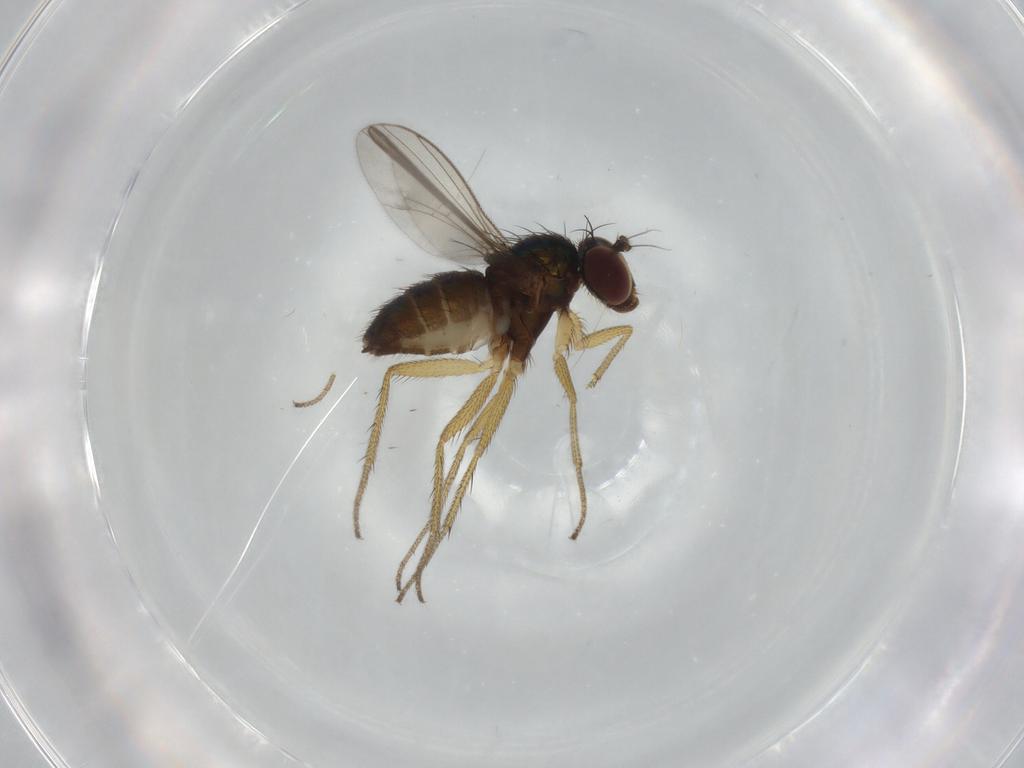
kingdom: Animalia
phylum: Arthropoda
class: Insecta
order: Diptera
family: Dolichopodidae
